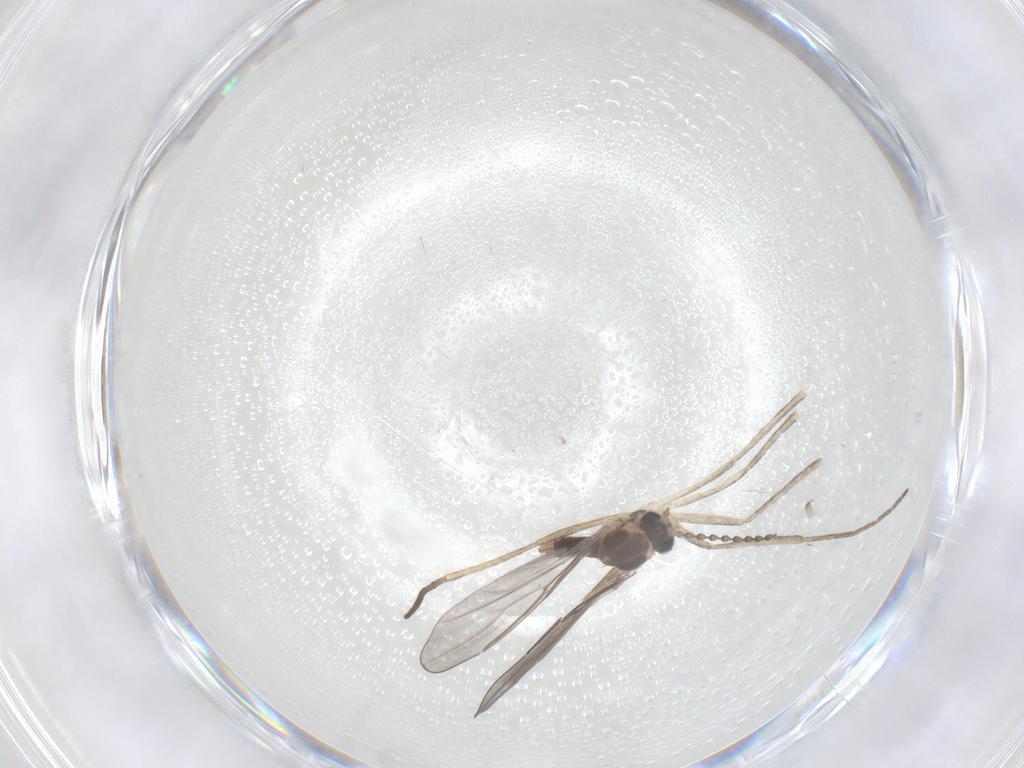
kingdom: Animalia
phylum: Arthropoda
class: Insecta
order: Diptera
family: Cecidomyiidae
